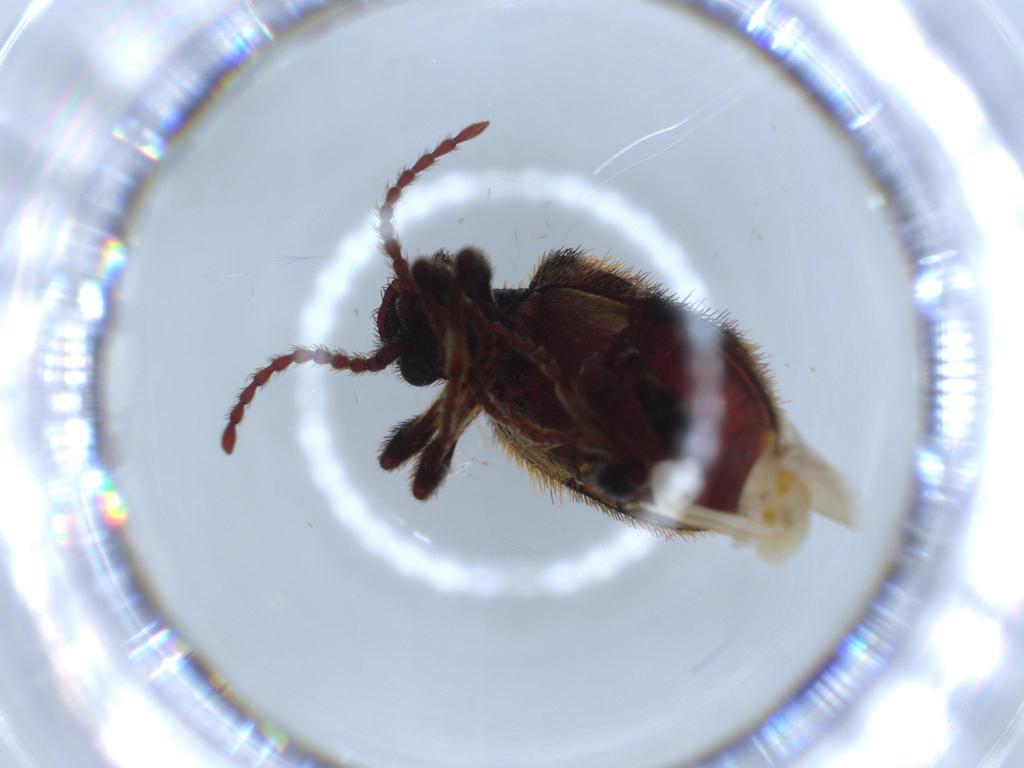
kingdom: Animalia
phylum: Arthropoda
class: Insecta
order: Coleoptera
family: Ptinidae
